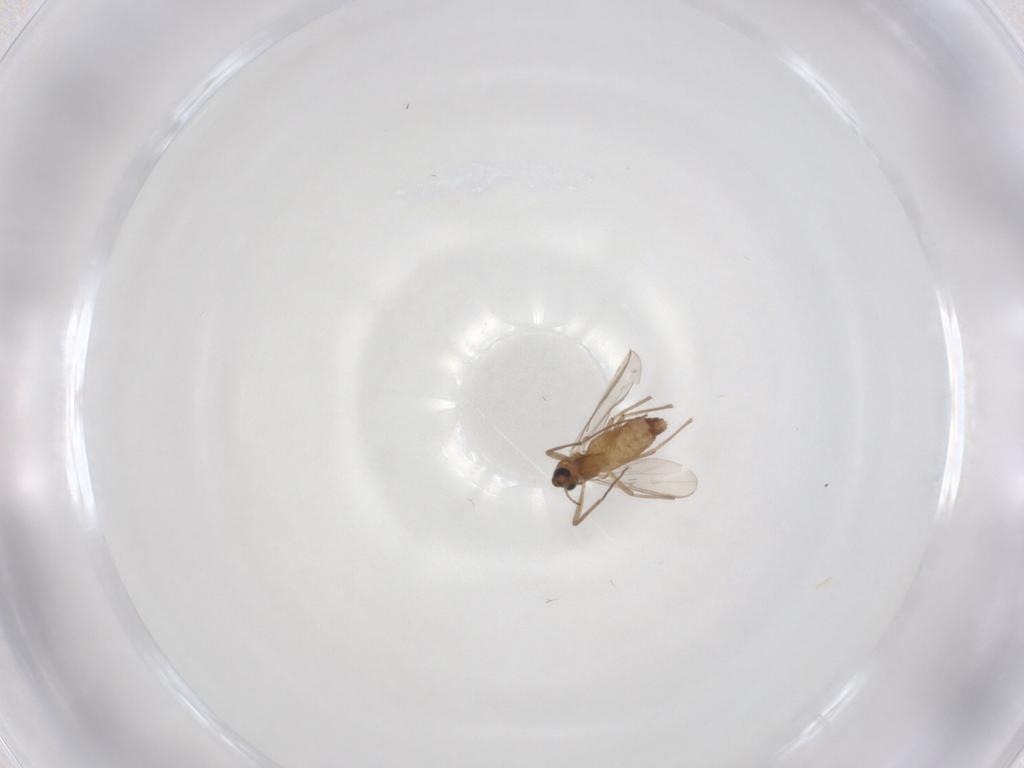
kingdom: Animalia
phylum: Arthropoda
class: Insecta
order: Diptera
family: Chironomidae
